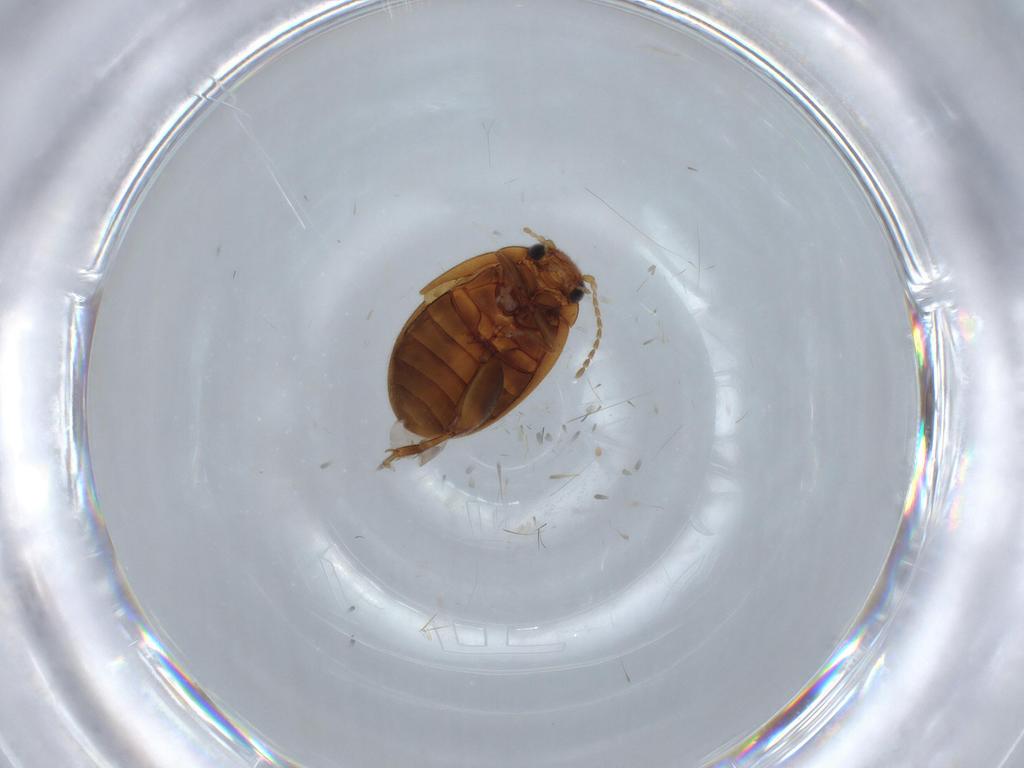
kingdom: Animalia
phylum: Arthropoda
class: Insecta
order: Coleoptera
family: Scirtidae
